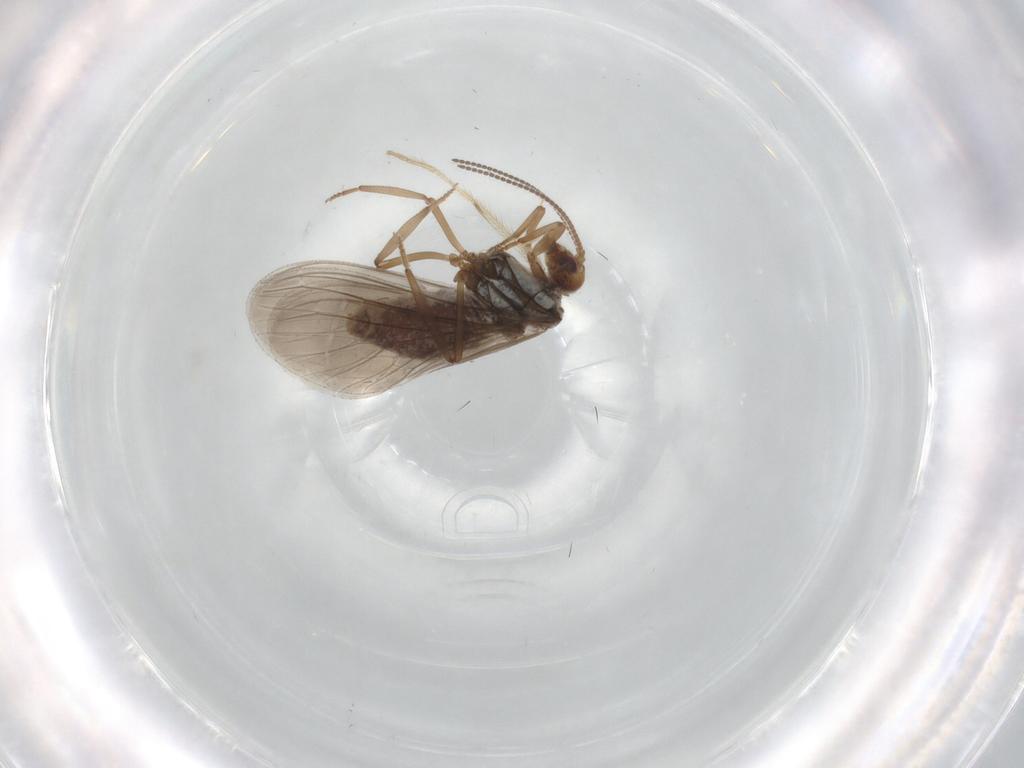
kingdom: Animalia
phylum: Arthropoda
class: Insecta
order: Neuroptera
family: Coniopterygidae
